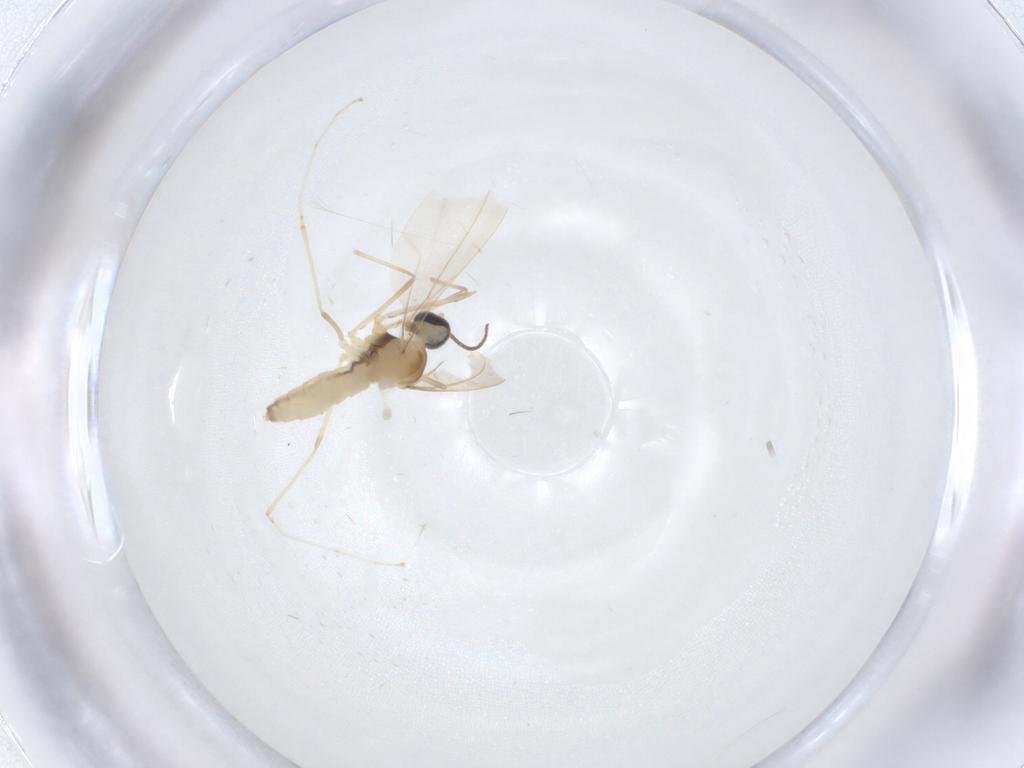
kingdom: Animalia
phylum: Arthropoda
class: Insecta
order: Diptera
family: Cecidomyiidae
